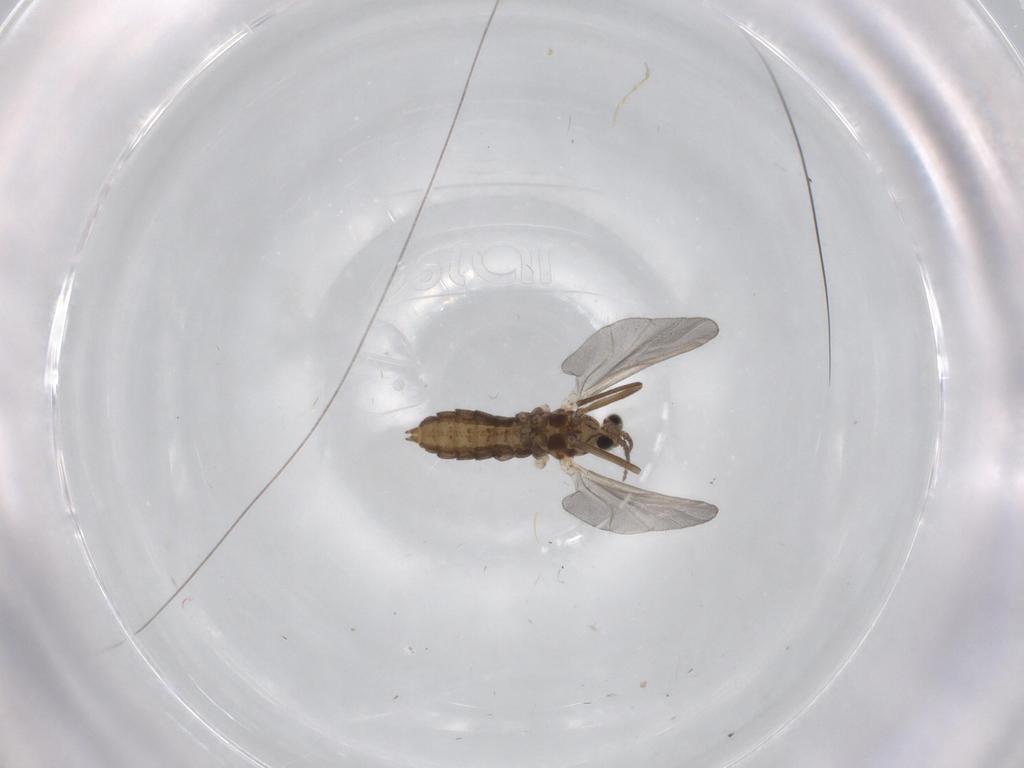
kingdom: Animalia
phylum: Arthropoda
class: Insecta
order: Diptera
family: Cecidomyiidae
